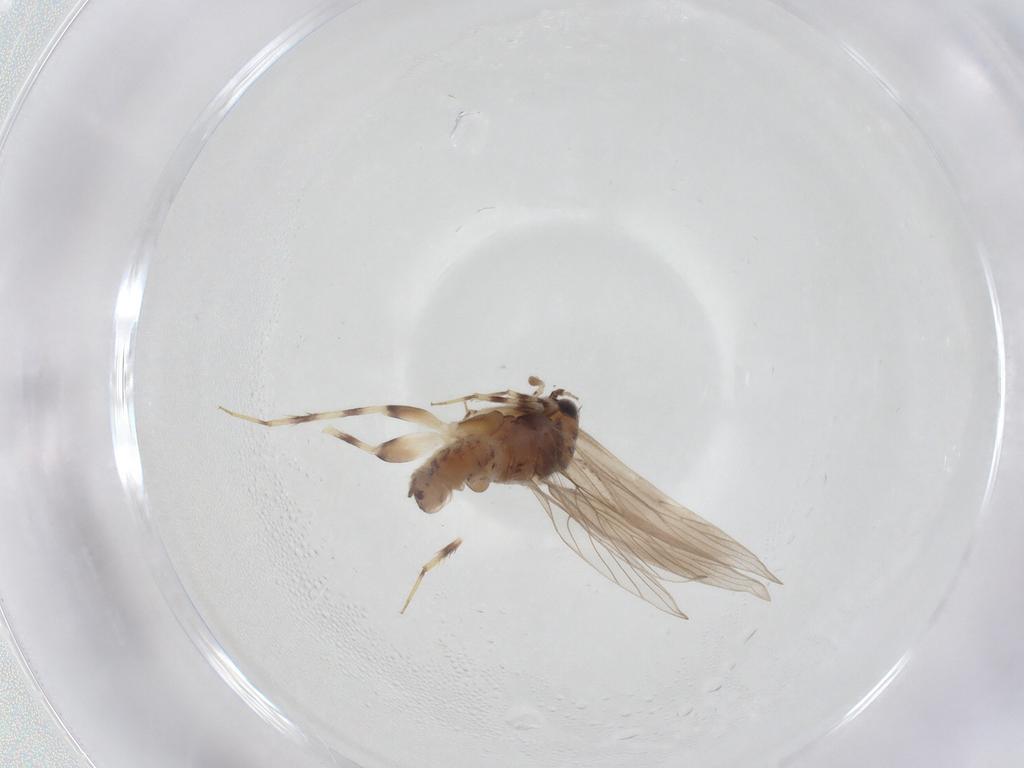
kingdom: Animalia
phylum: Arthropoda
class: Insecta
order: Psocodea
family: Lepidopsocidae
